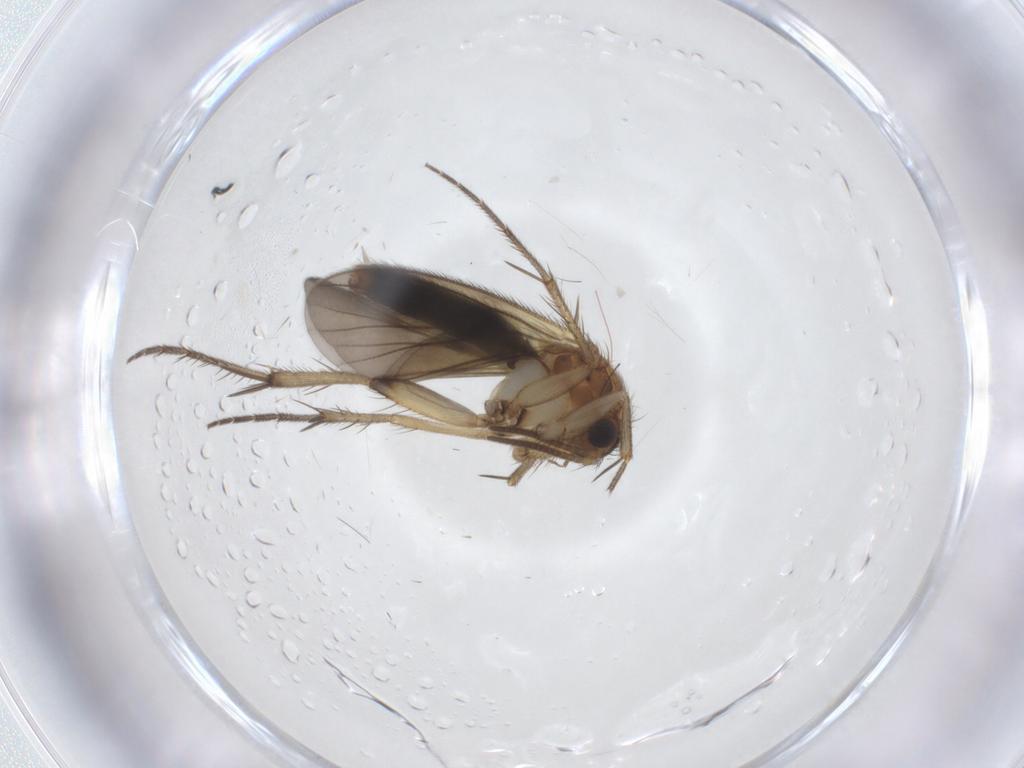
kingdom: Animalia
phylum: Arthropoda
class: Insecta
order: Diptera
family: Mycetophilidae
